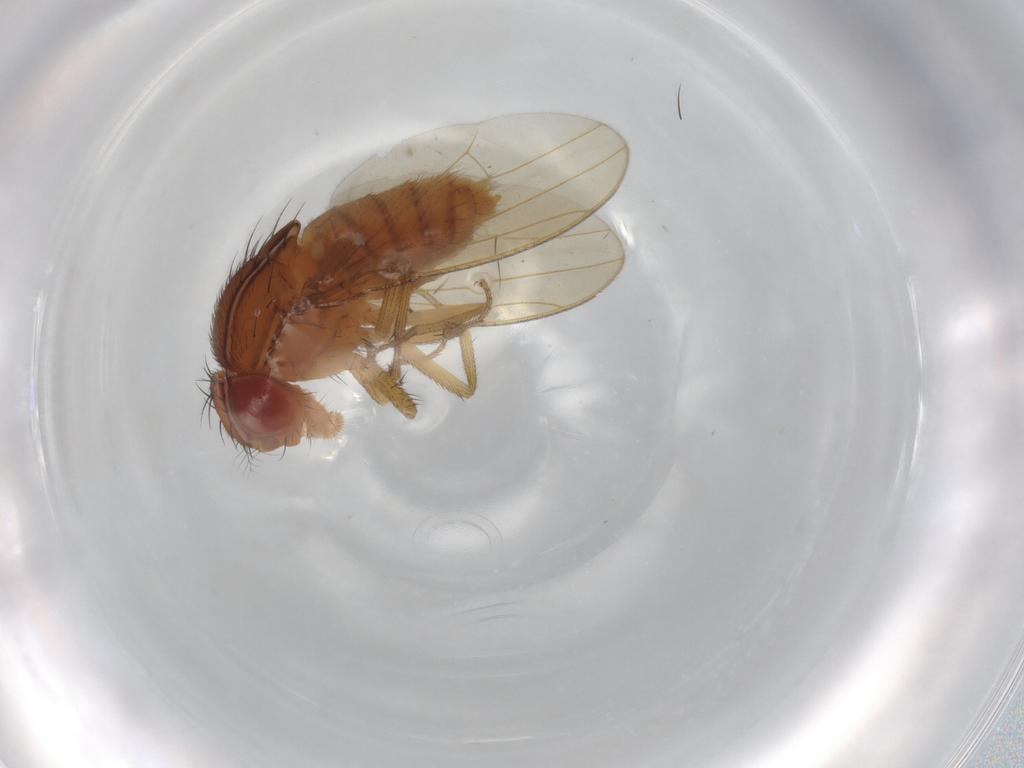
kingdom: Animalia
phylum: Arthropoda
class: Insecta
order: Diptera
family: Drosophilidae
